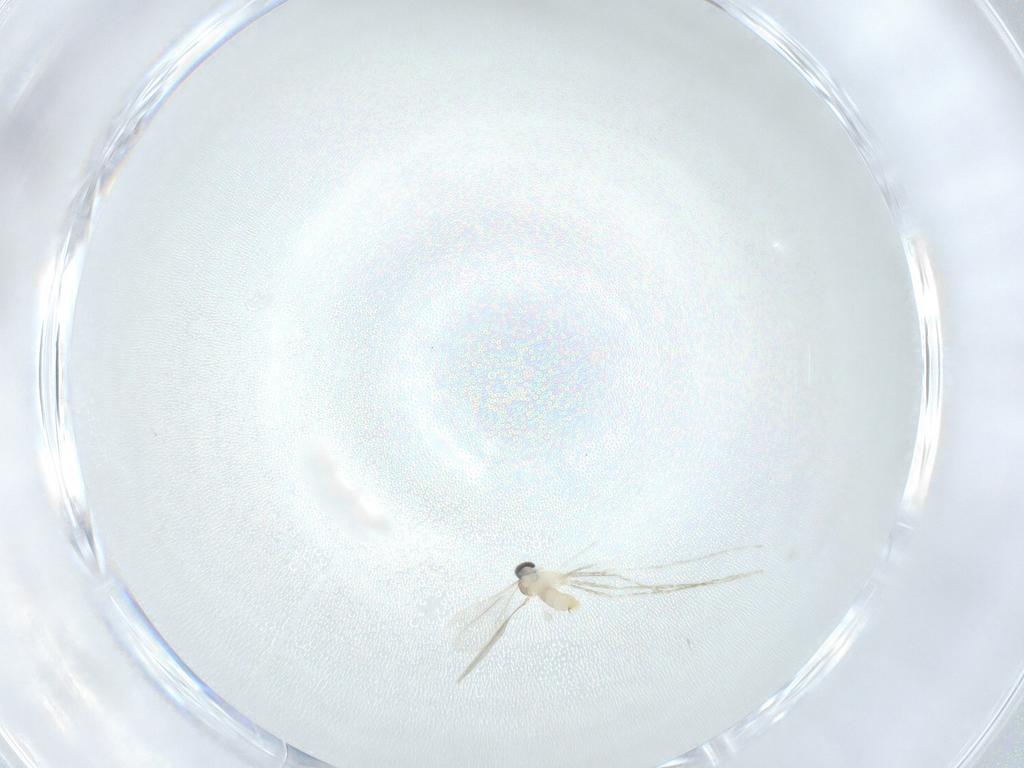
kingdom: Animalia
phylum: Arthropoda
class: Insecta
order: Diptera
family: Cecidomyiidae
